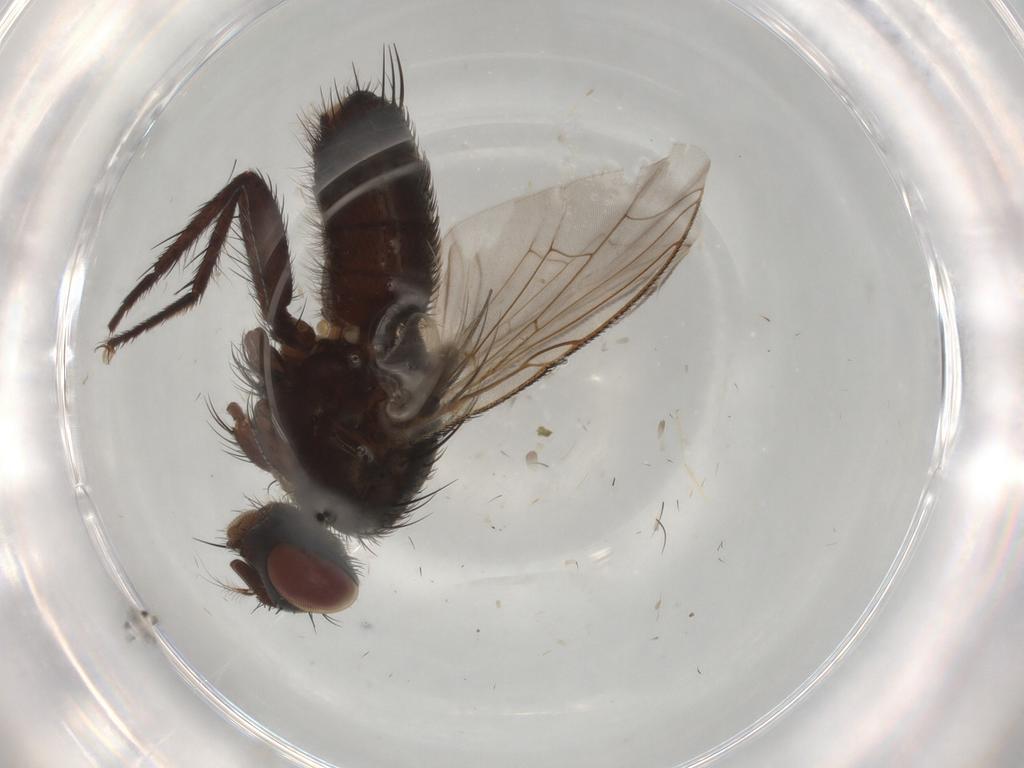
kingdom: Animalia
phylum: Arthropoda
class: Insecta
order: Diptera
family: Sarcophagidae
